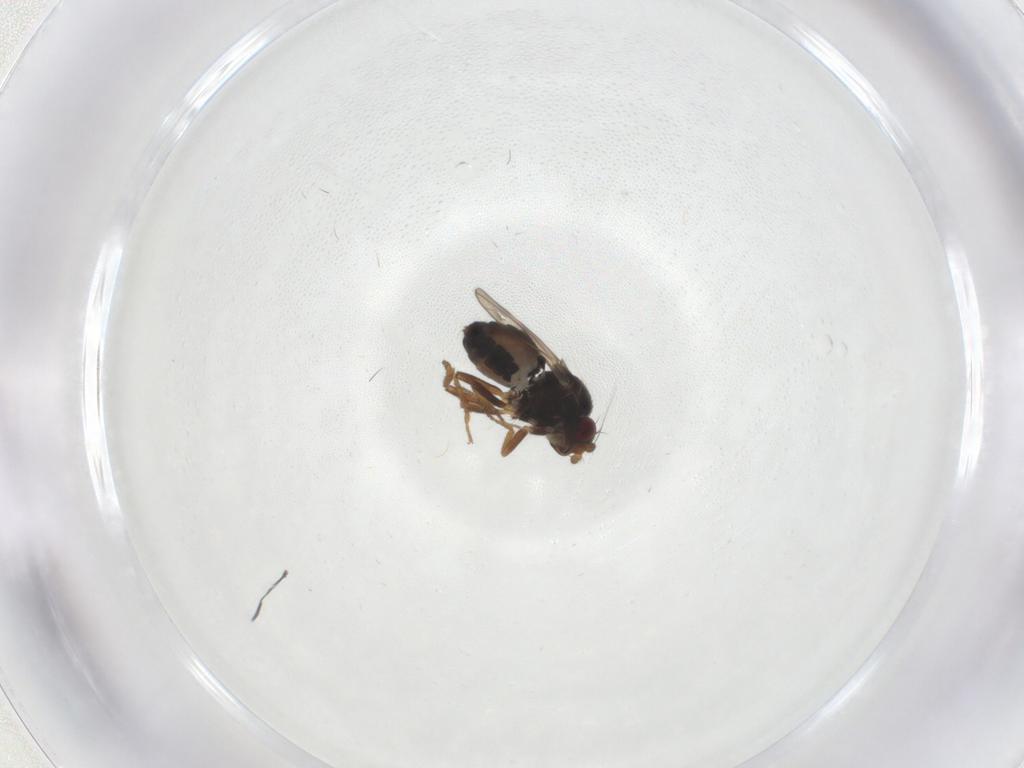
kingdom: Animalia
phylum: Arthropoda
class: Insecta
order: Diptera
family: Sphaeroceridae
